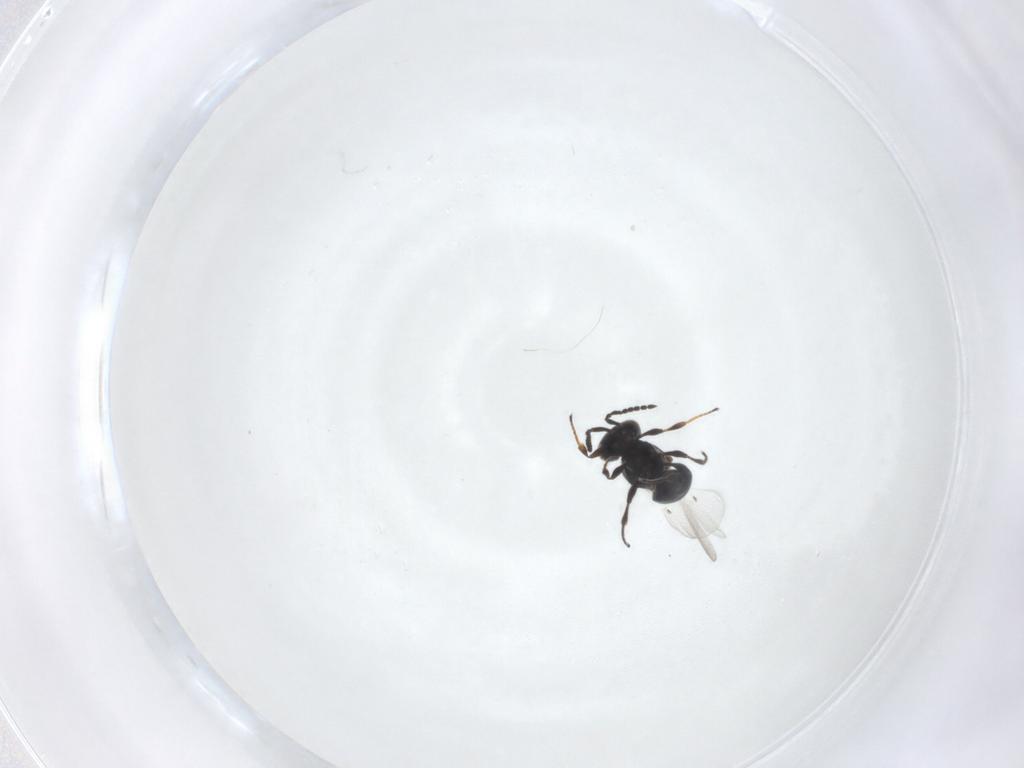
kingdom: Animalia
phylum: Arthropoda
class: Insecta
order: Hymenoptera
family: Platygastridae
